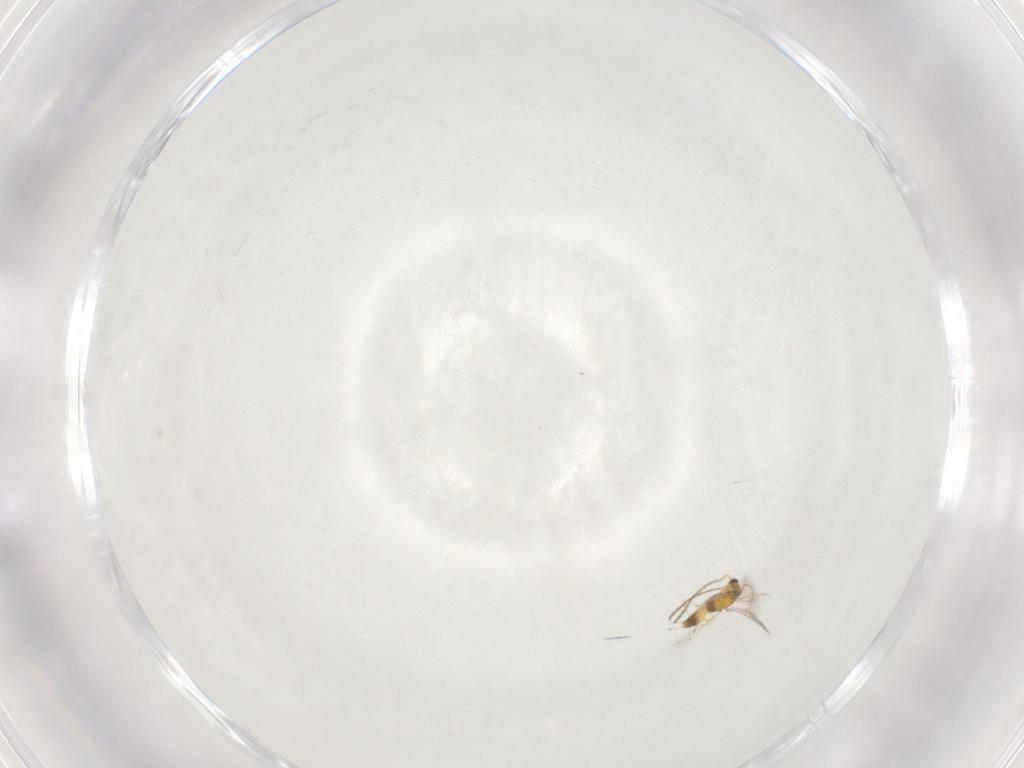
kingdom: Animalia
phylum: Arthropoda
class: Insecta
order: Hymenoptera
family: Mymaridae
